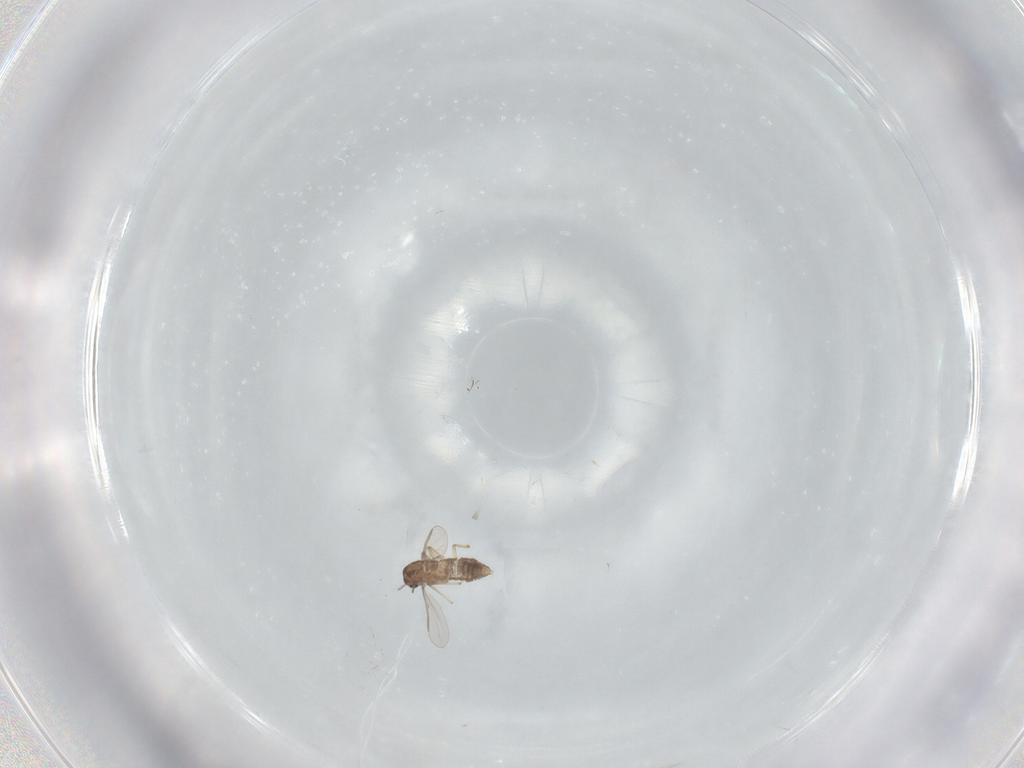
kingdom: Animalia
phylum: Arthropoda
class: Insecta
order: Diptera
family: Chironomidae
